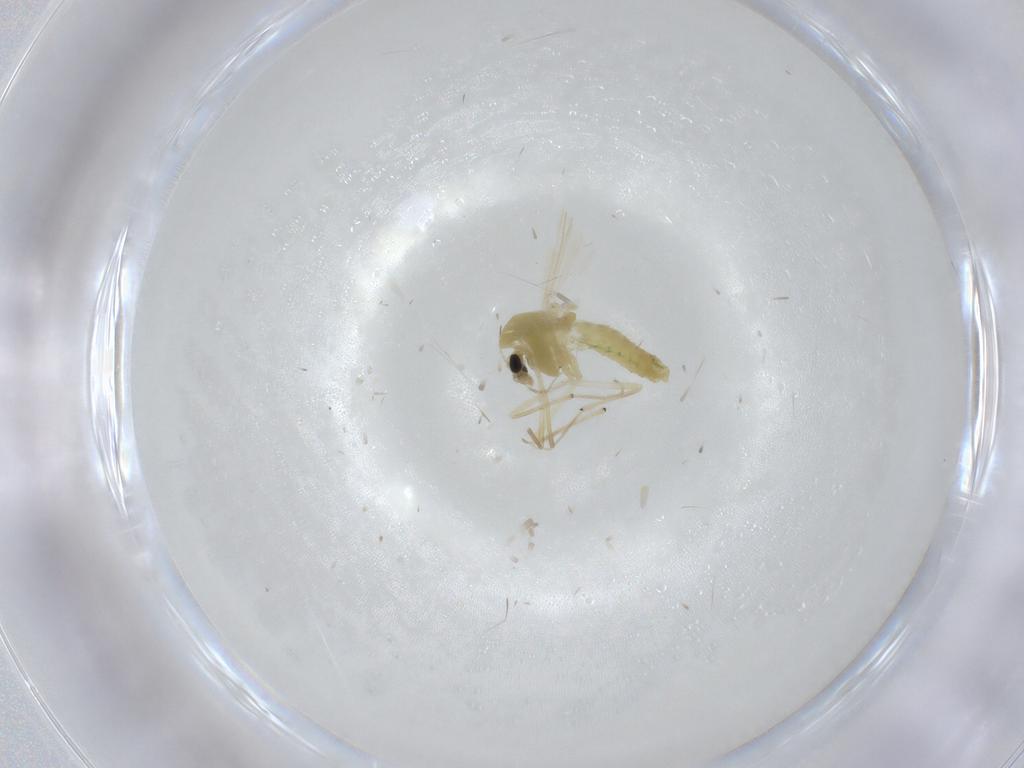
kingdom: Animalia
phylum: Arthropoda
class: Insecta
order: Diptera
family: Chironomidae
